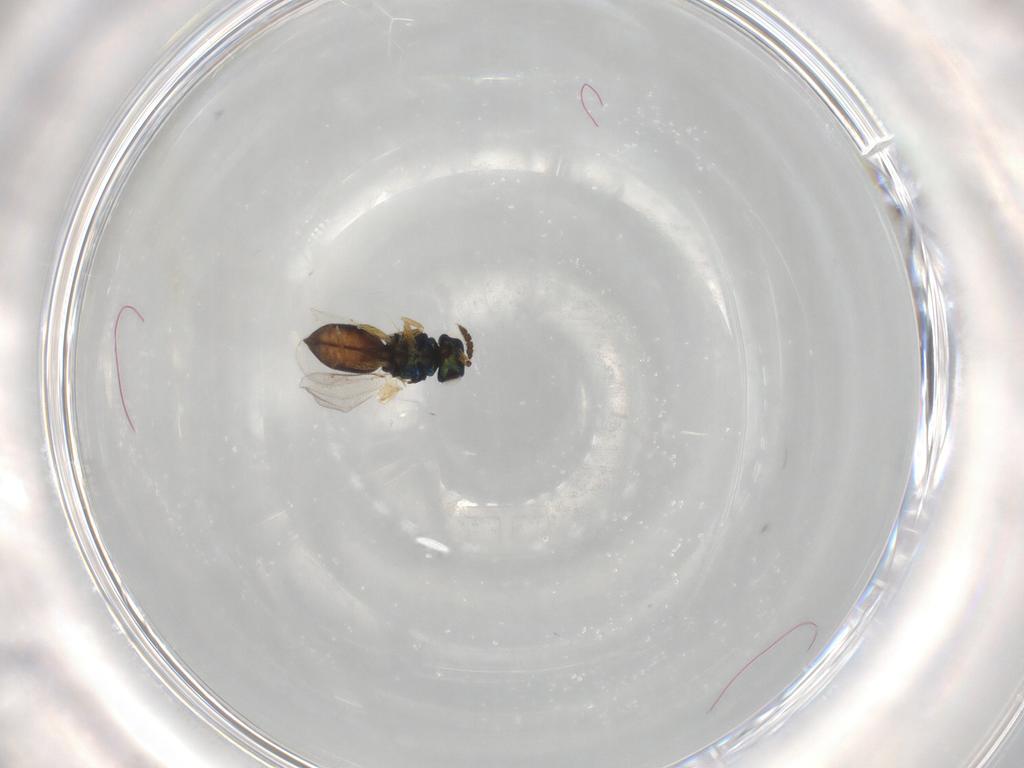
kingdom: Animalia
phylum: Arthropoda
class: Insecta
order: Hymenoptera
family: Eulophidae
